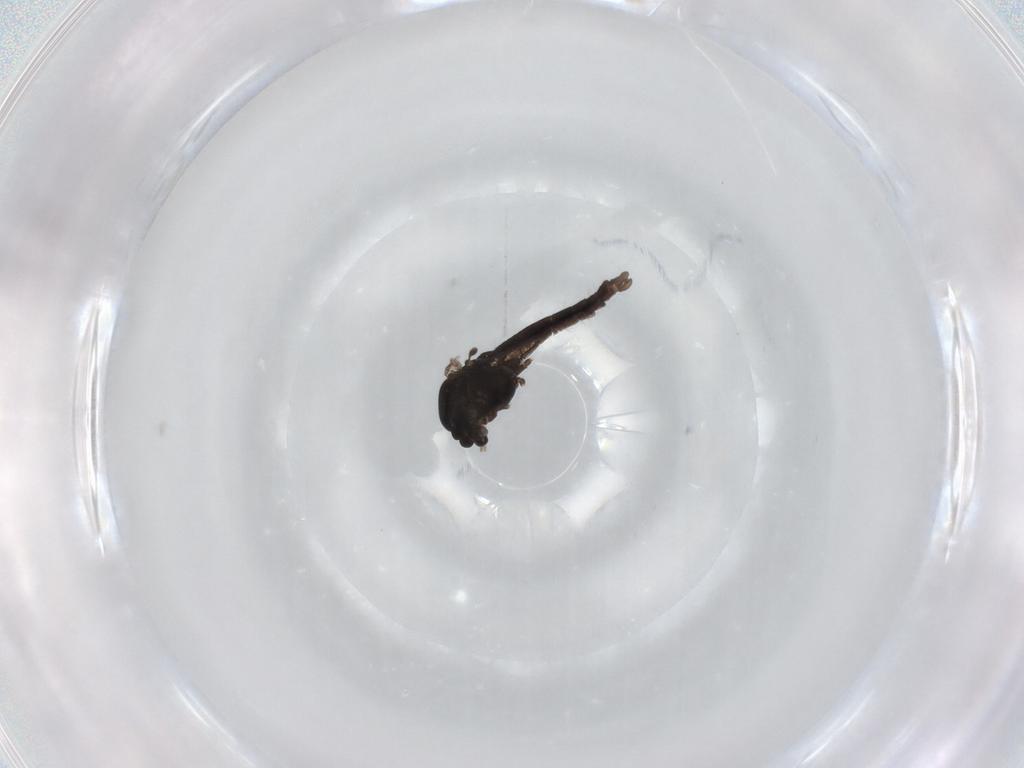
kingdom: Animalia
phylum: Arthropoda
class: Insecta
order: Diptera
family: Chironomidae
